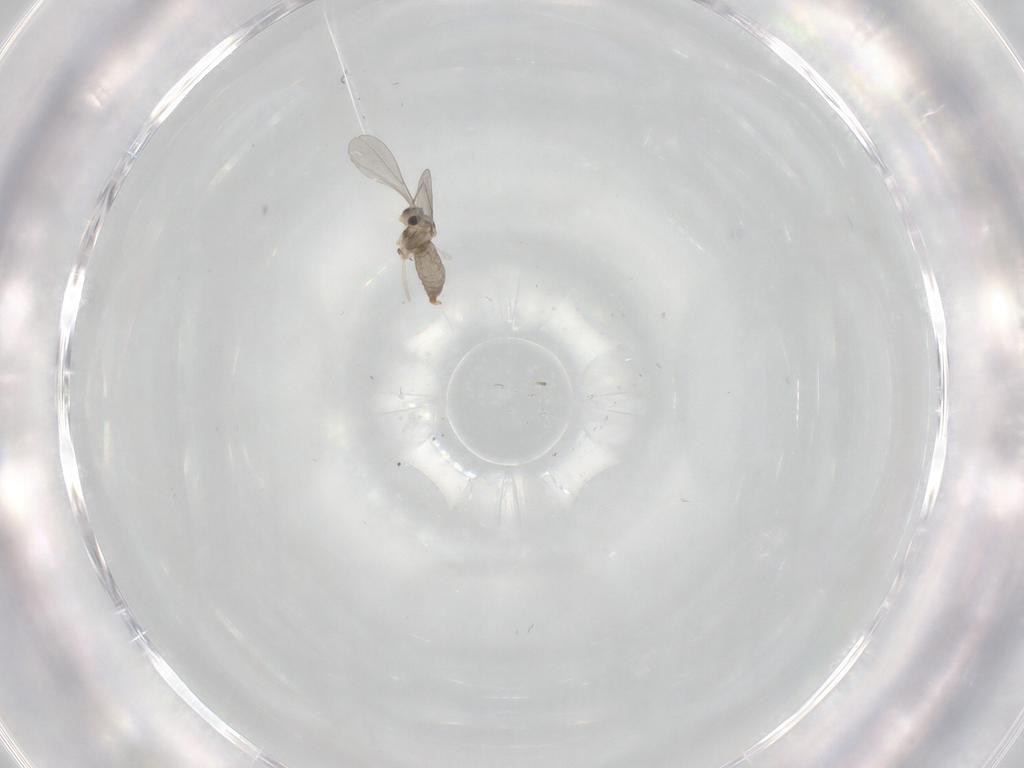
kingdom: Animalia
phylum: Arthropoda
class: Insecta
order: Diptera
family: Chironomidae
